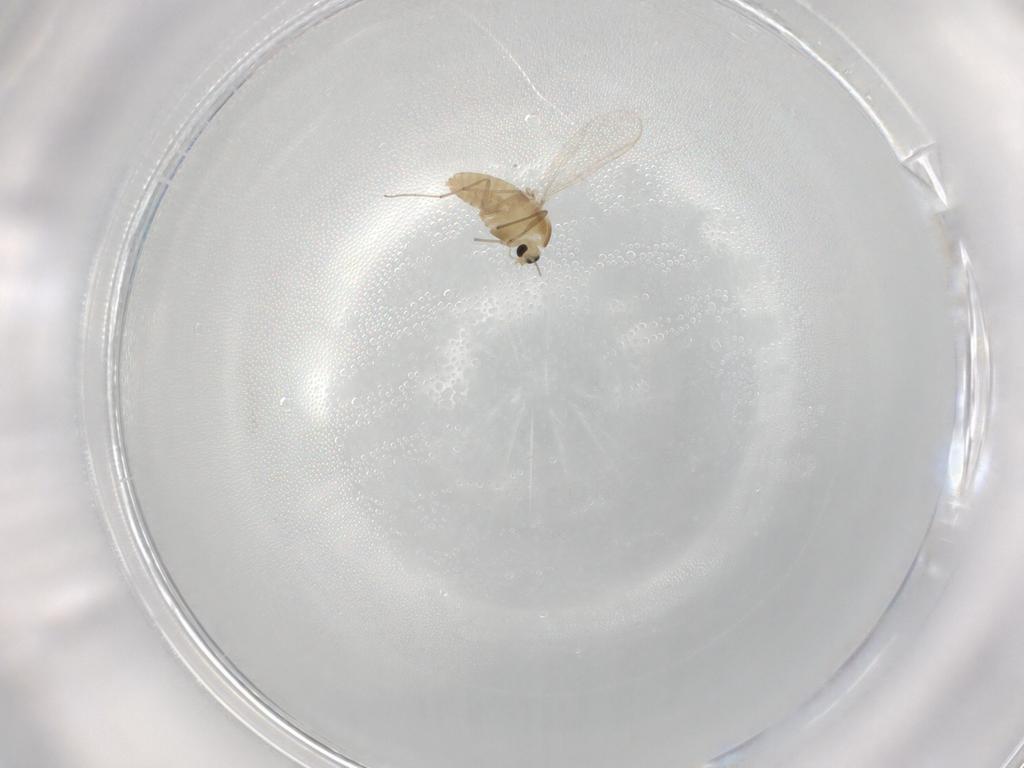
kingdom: Animalia
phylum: Arthropoda
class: Insecta
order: Diptera
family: Chironomidae
